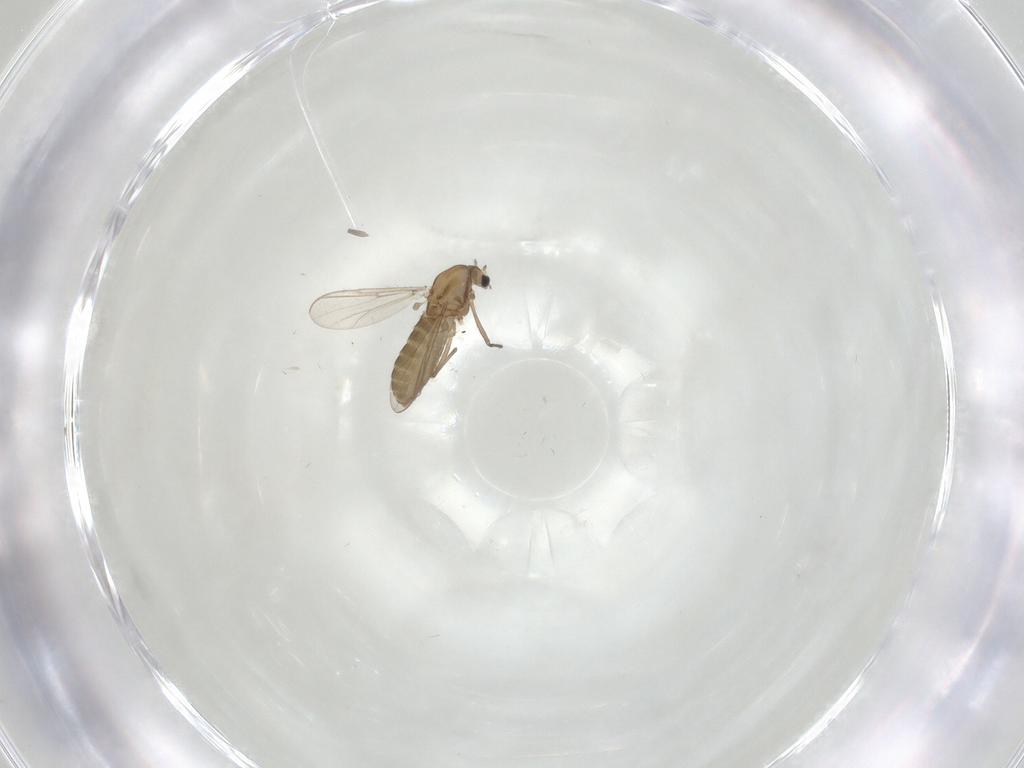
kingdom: Animalia
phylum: Arthropoda
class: Insecta
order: Diptera
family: Chironomidae
